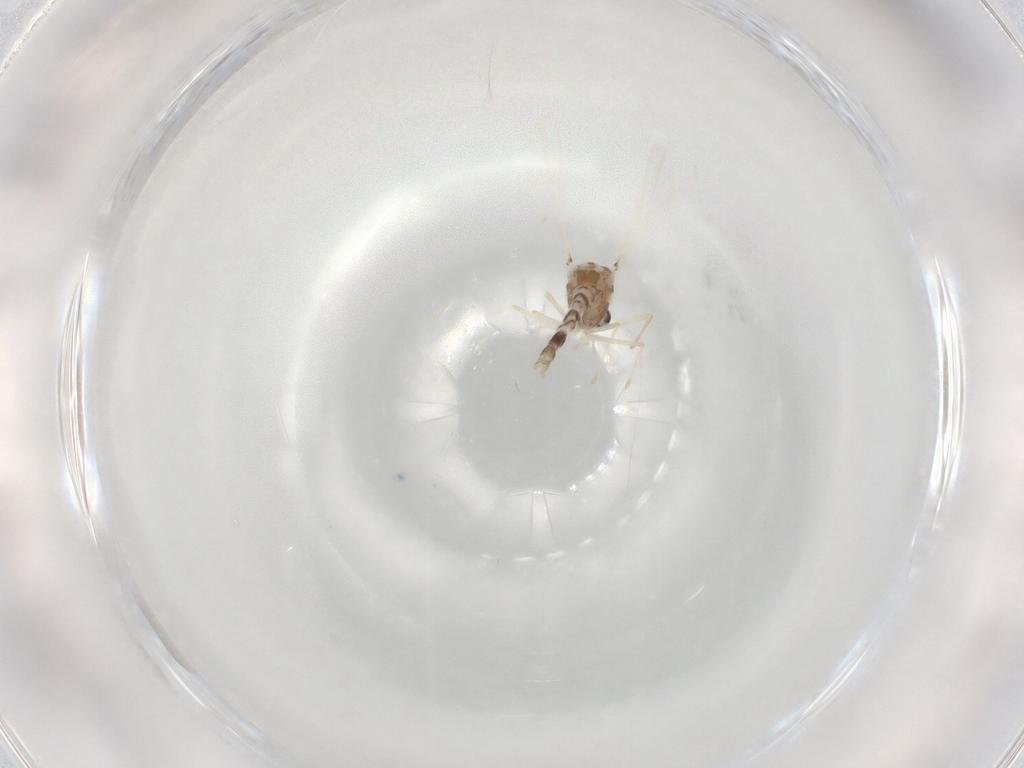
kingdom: Animalia
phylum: Arthropoda
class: Insecta
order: Diptera
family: Chironomidae
